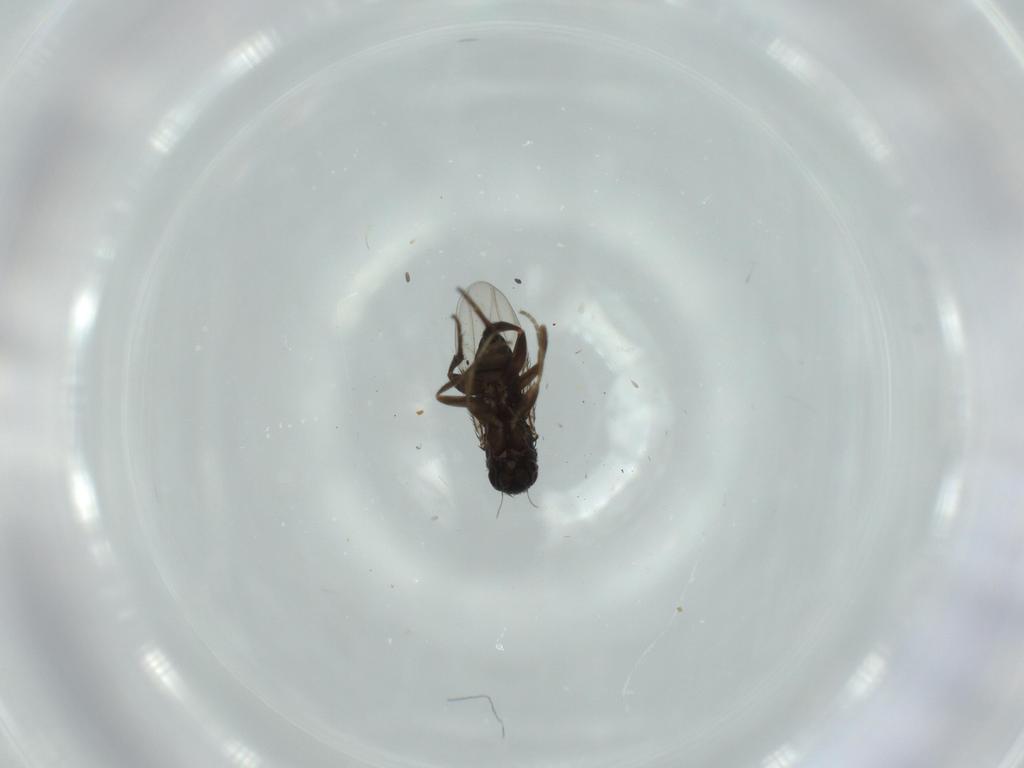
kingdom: Animalia
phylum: Arthropoda
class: Insecta
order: Diptera
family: Phoridae
